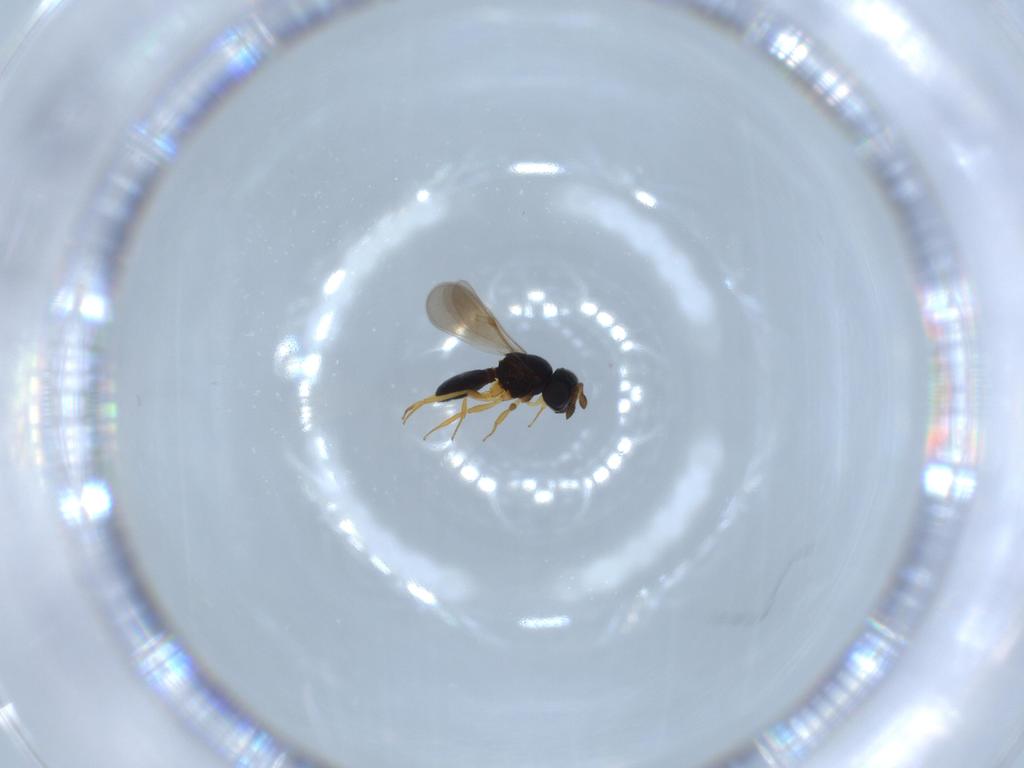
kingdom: Animalia
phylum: Arthropoda
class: Insecta
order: Hymenoptera
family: Scelionidae
